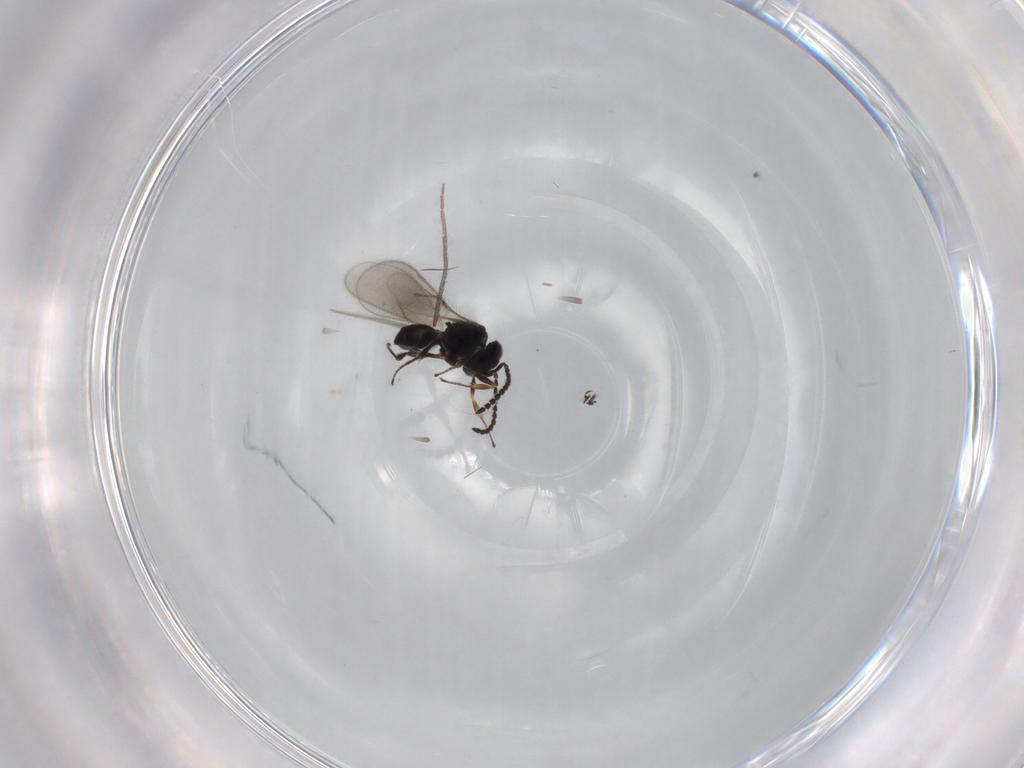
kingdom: Animalia
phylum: Arthropoda
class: Insecta
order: Hymenoptera
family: Scelionidae
